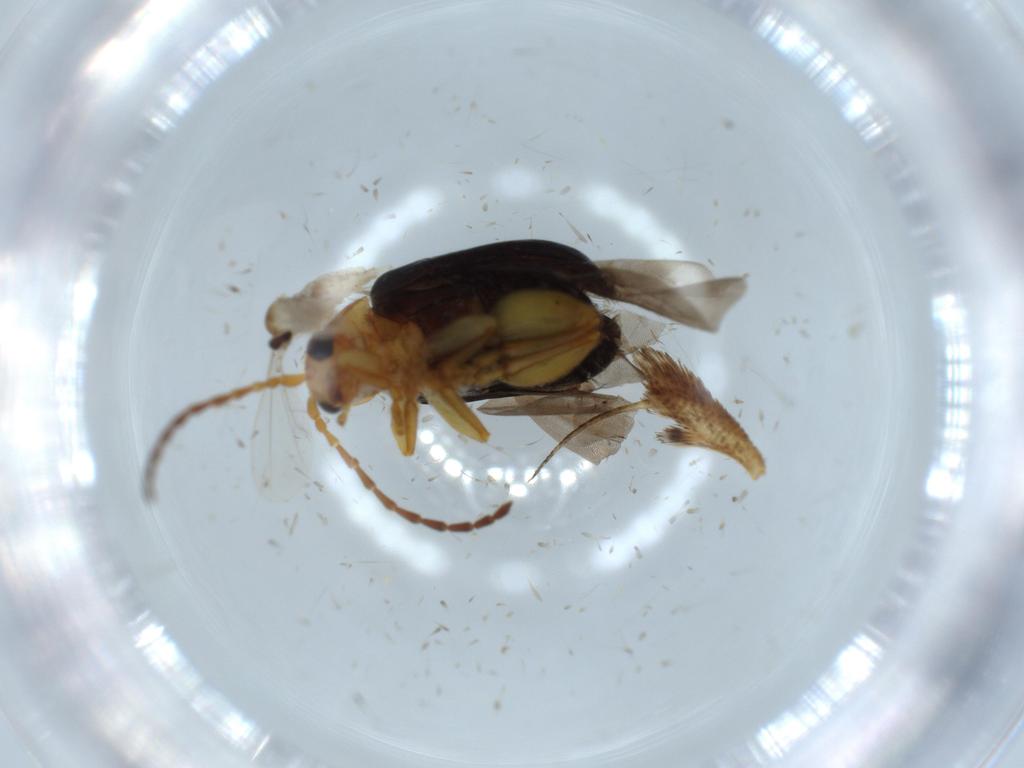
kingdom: Animalia
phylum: Arthropoda
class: Insecta
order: Coleoptera
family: Chrysomelidae
